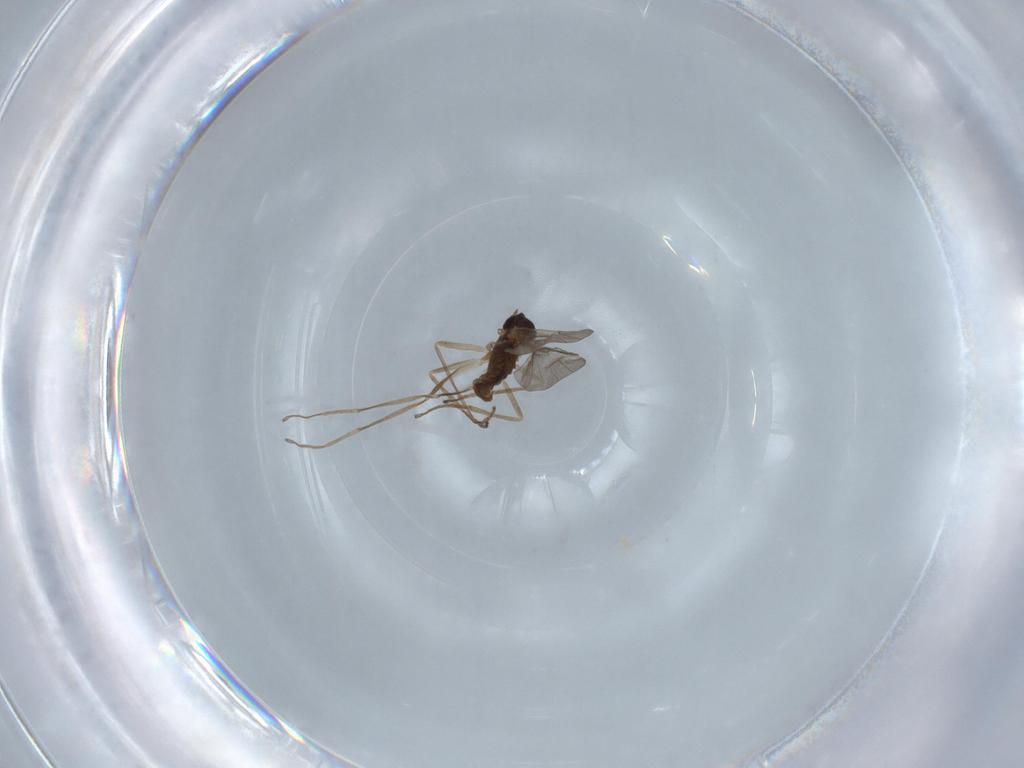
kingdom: Animalia
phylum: Arthropoda
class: Insecta
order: Diptera
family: Cecidomyiidae
